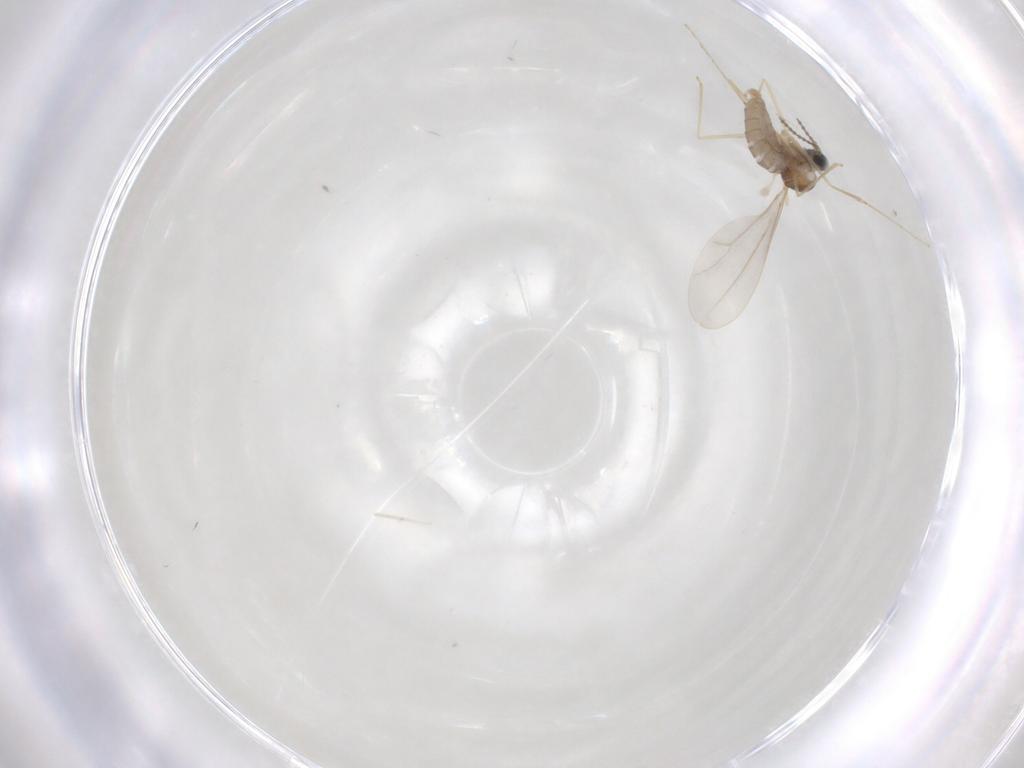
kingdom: Animalia
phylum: Arthropoda
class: Insecta
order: Diptera
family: Cecidomyiidae
